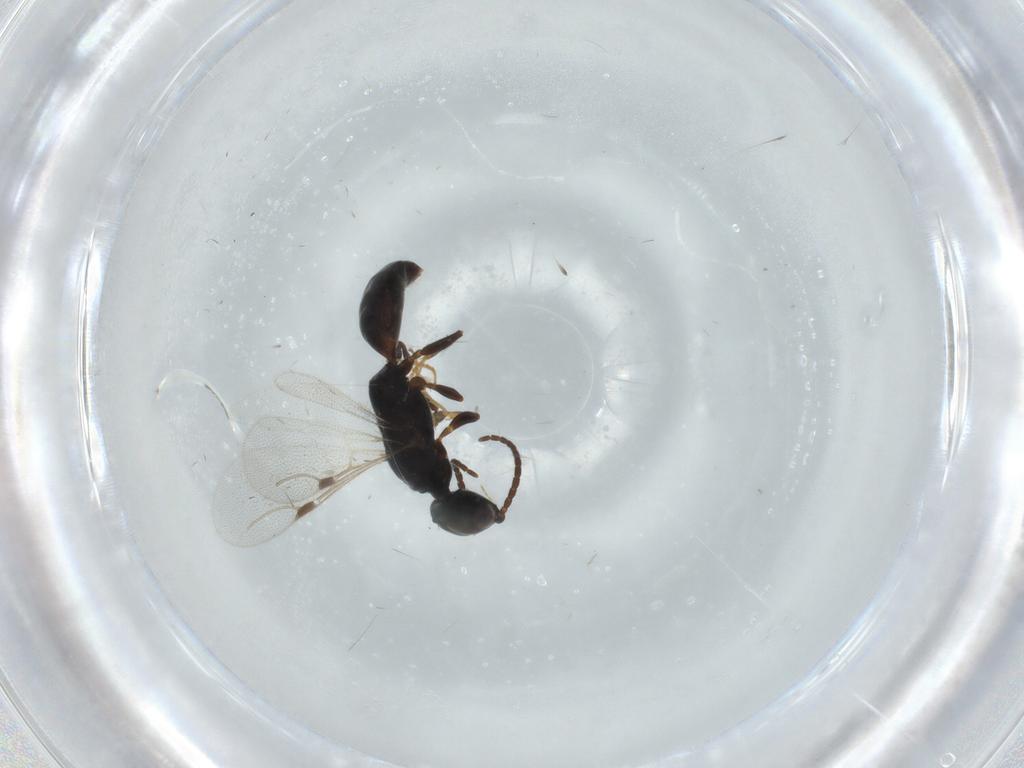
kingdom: Animalia
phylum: Arthropoda
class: Insecta
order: Hymenoptera
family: Bethylidae
